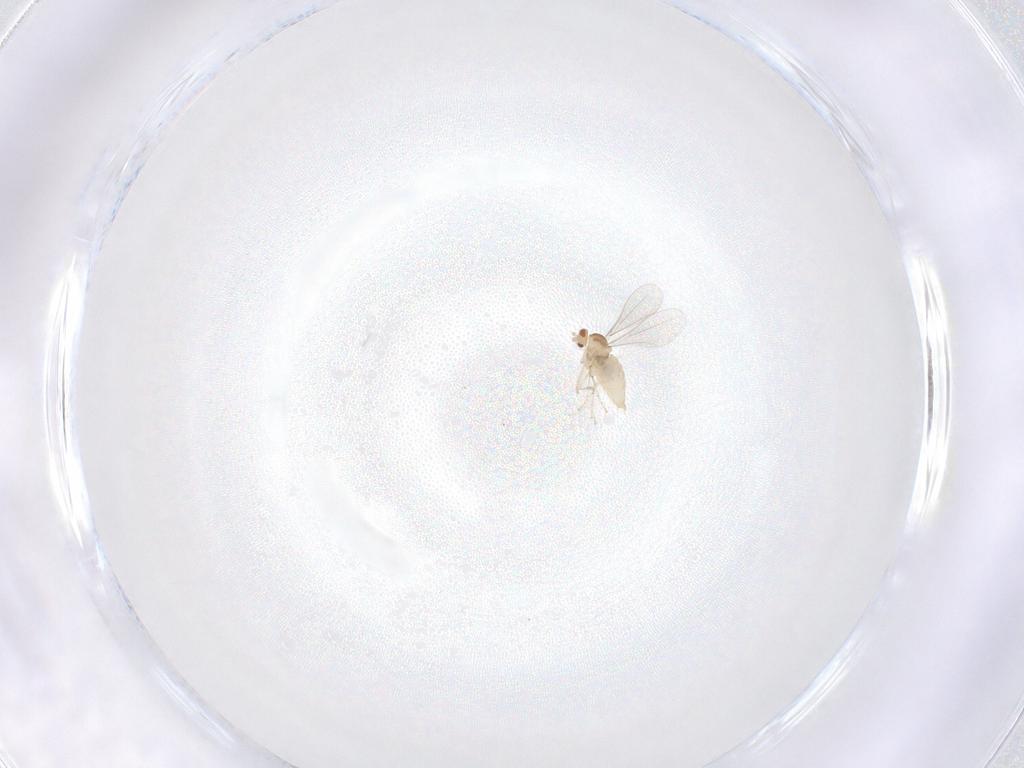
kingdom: Animalia
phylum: Arthropoda
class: Insecta
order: Diptera
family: Cecidomyiidae
